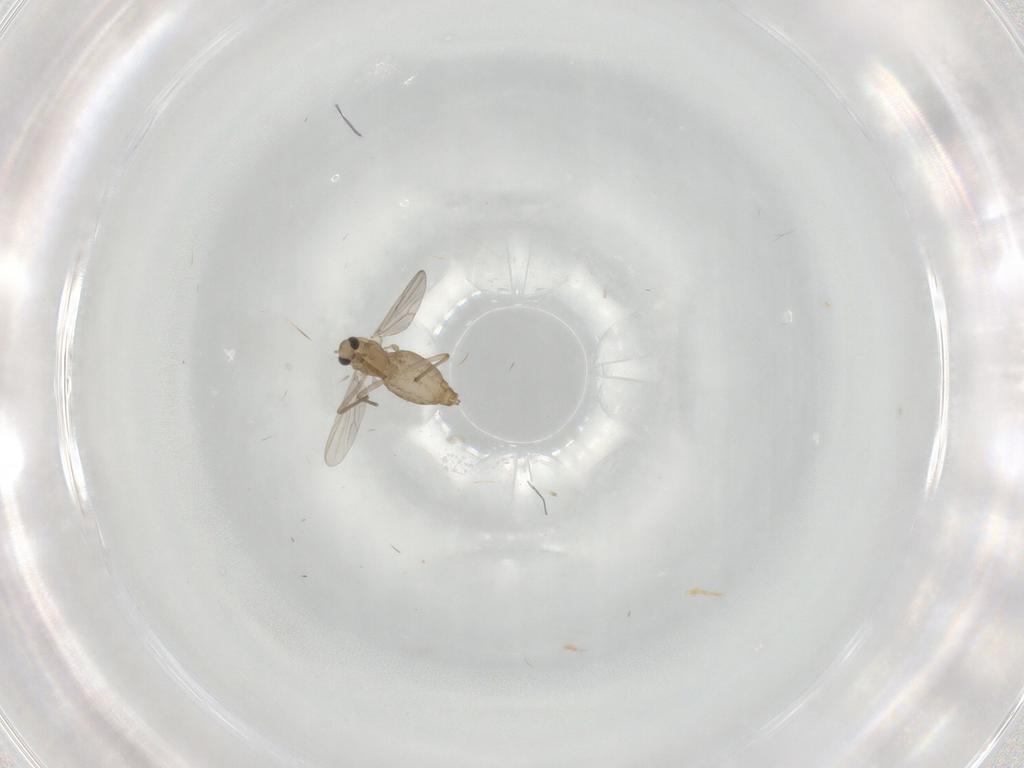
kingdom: Animalia
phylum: Arthropoda
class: Insecta
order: Diptera
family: Chironomidae
